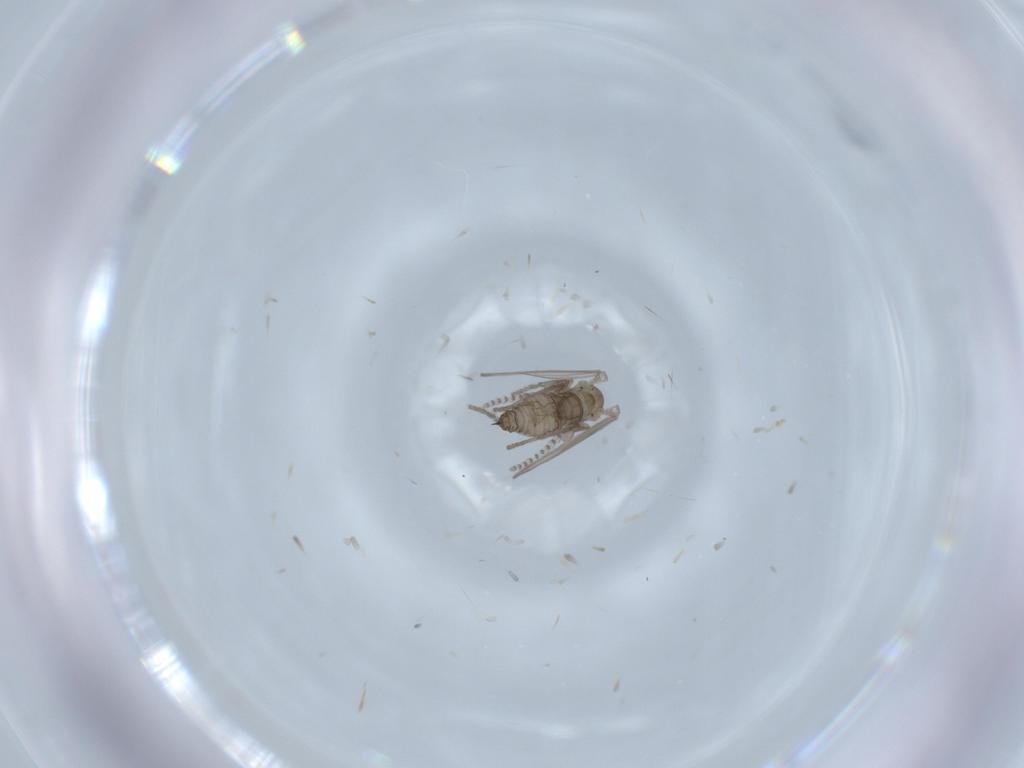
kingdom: Animalia
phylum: Arthropoda
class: Insecta
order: Diptera
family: Psychodidae
